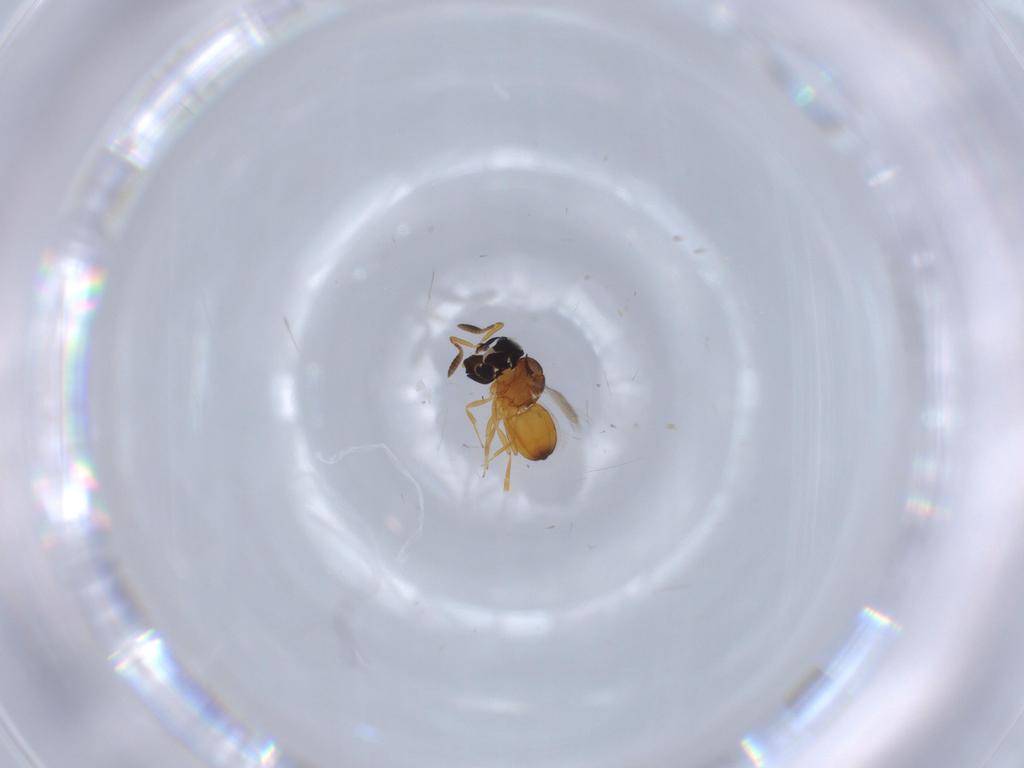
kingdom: Animalia
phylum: Arthropoda
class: Insecta
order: Hymenoptera
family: Scelionidae
